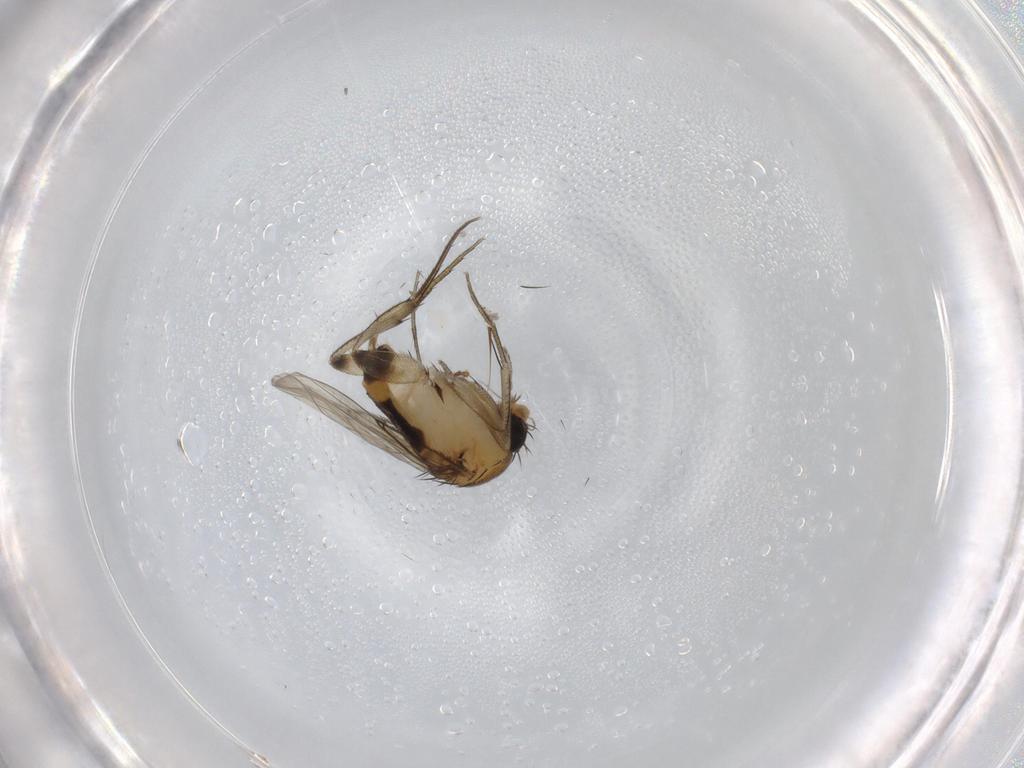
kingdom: Animalia
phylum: Arthropoda
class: Insecta
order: Diptera
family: Phoridae
